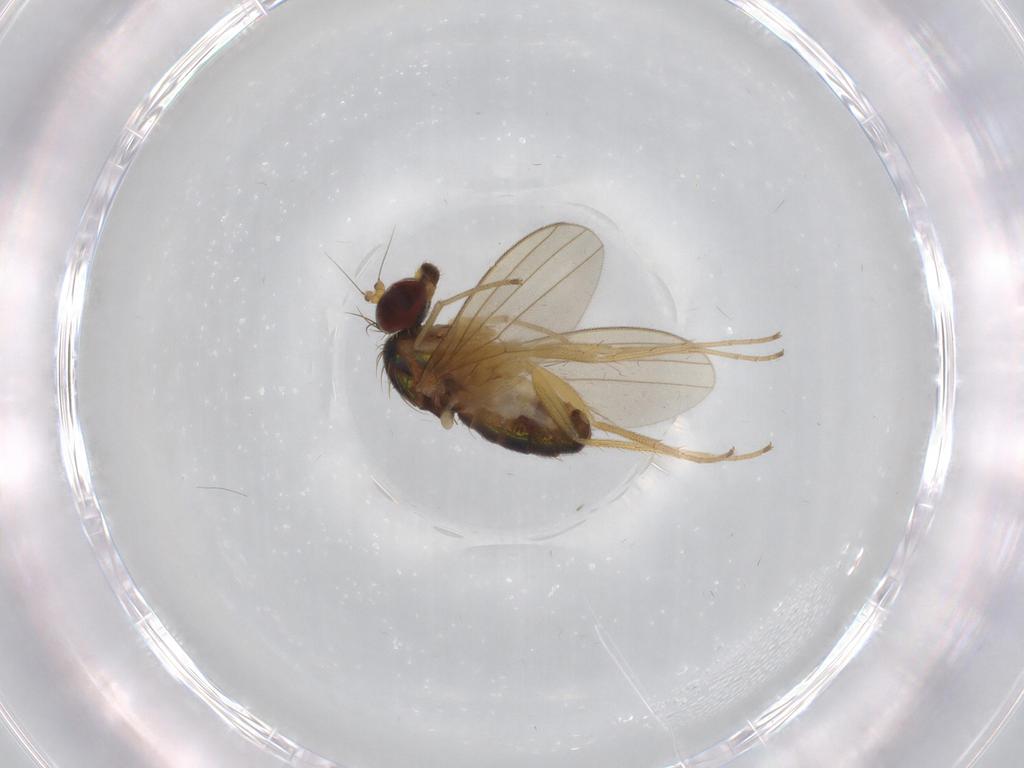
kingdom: Animalia
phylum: Arthropoda
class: Insecta
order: Diptera
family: Dolichopodidae
